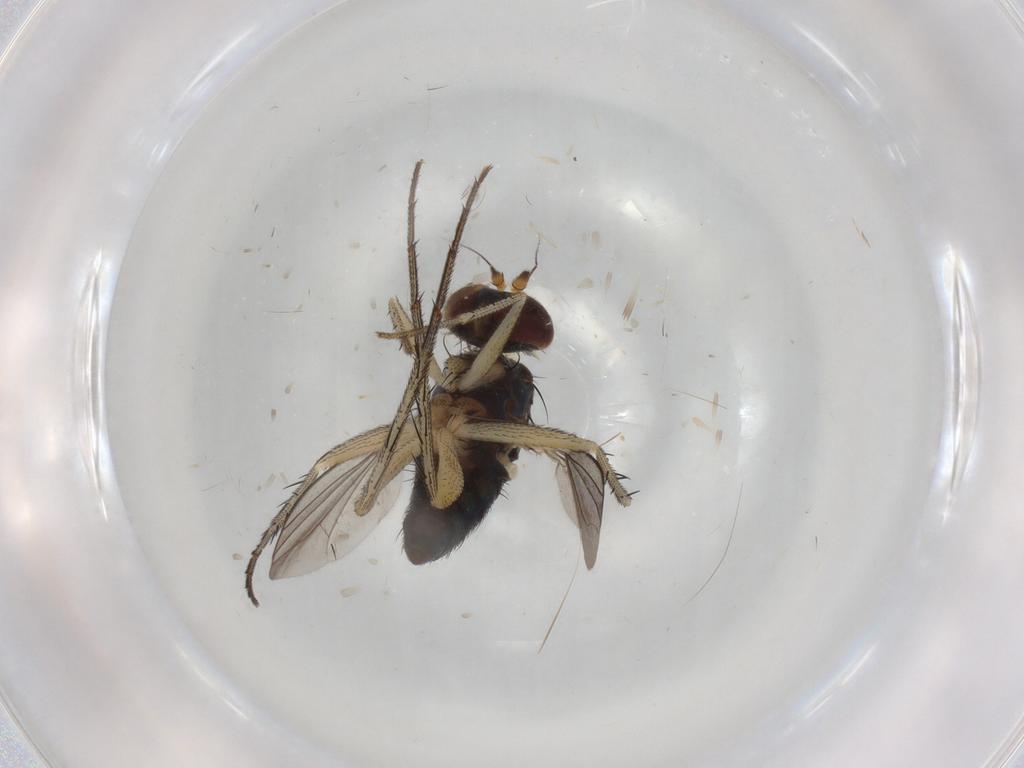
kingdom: Animalia
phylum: Arthropoda
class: Insecta
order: Diptera
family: Dolichopodidae
